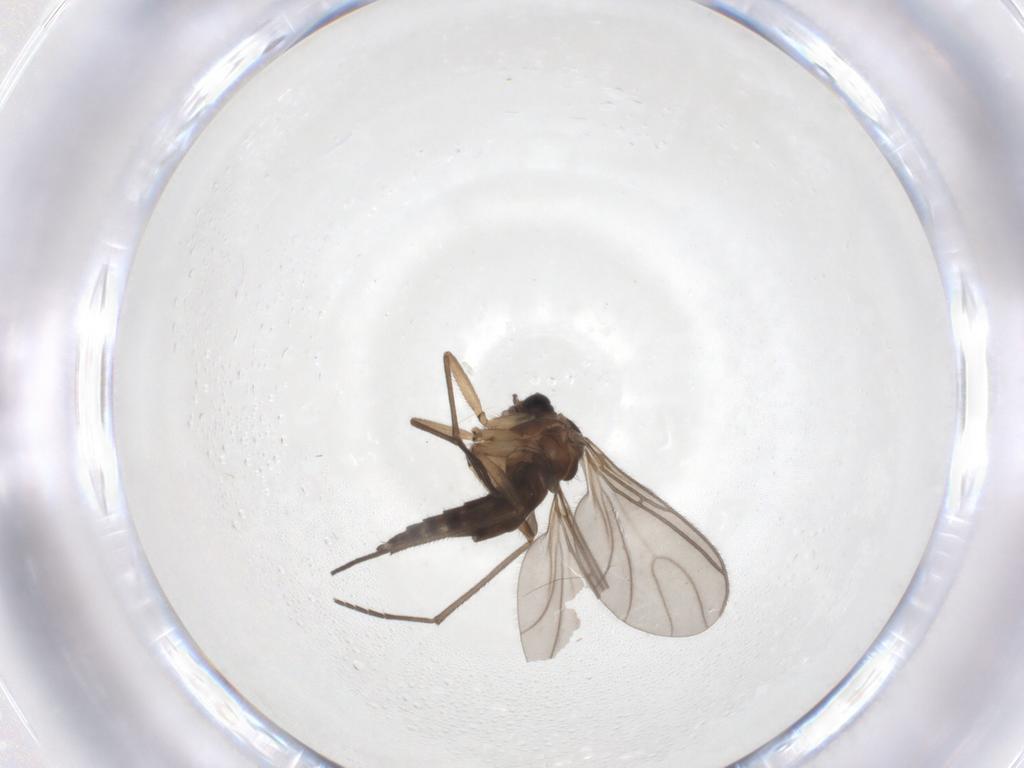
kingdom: Animalia
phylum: Arthropoda
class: Insecta
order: Diptera
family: Sciaridae
